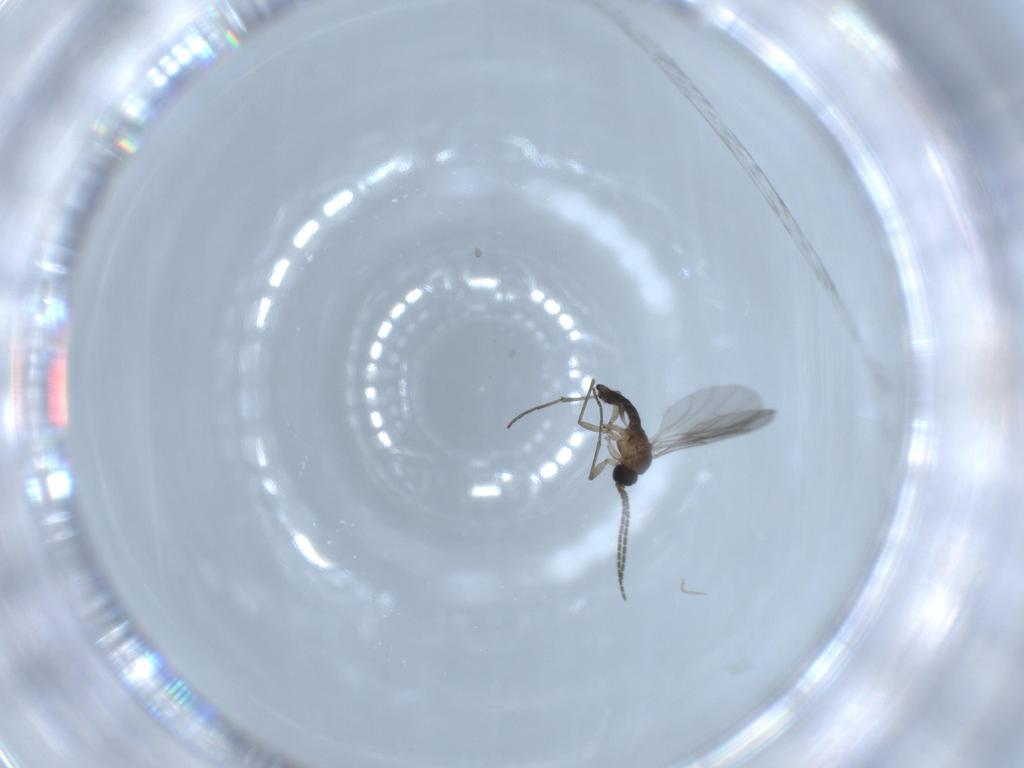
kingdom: Animalia
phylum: Arthropoda
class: Insecta
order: Diptera
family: Sciaridae
